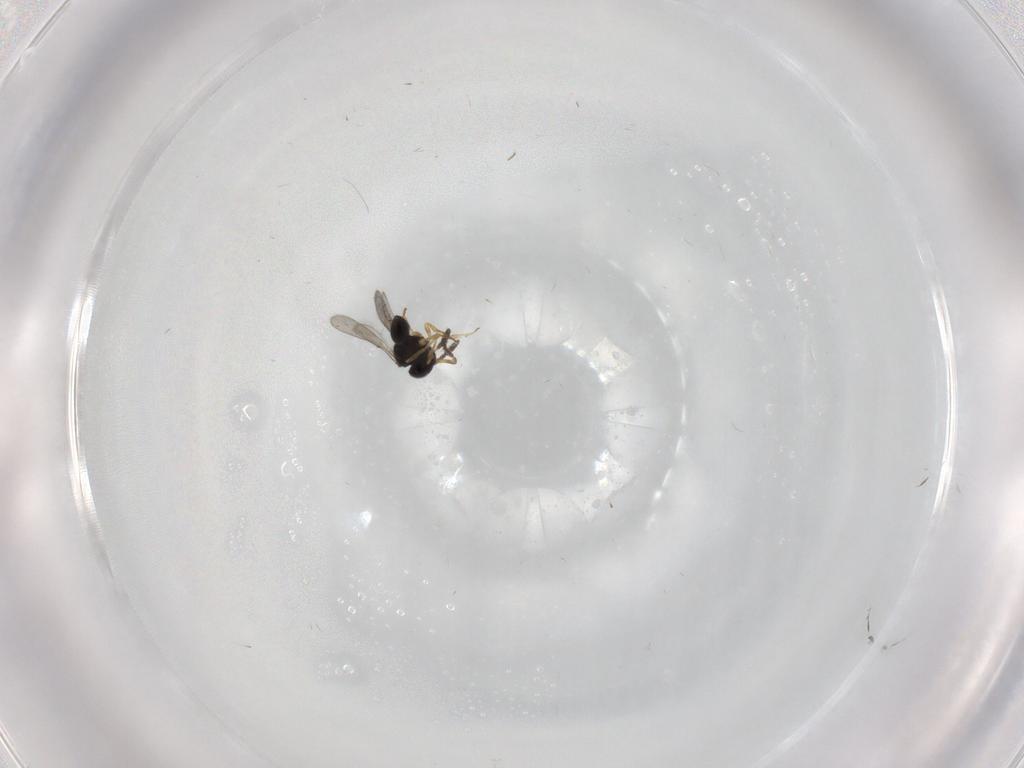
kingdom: Animalia
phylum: Arthropoda
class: Insecta
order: Hymenoptera
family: Scelionidae
